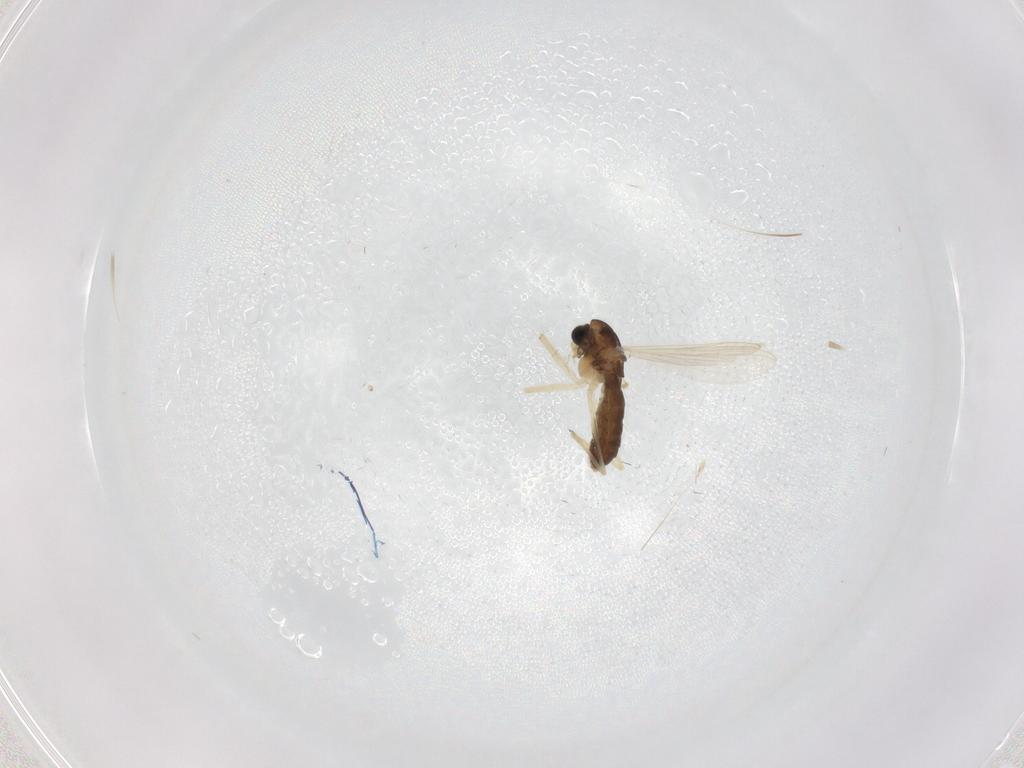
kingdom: Animalia
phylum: Arthropoda
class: Insecta
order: Diptera
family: Chironomidae
